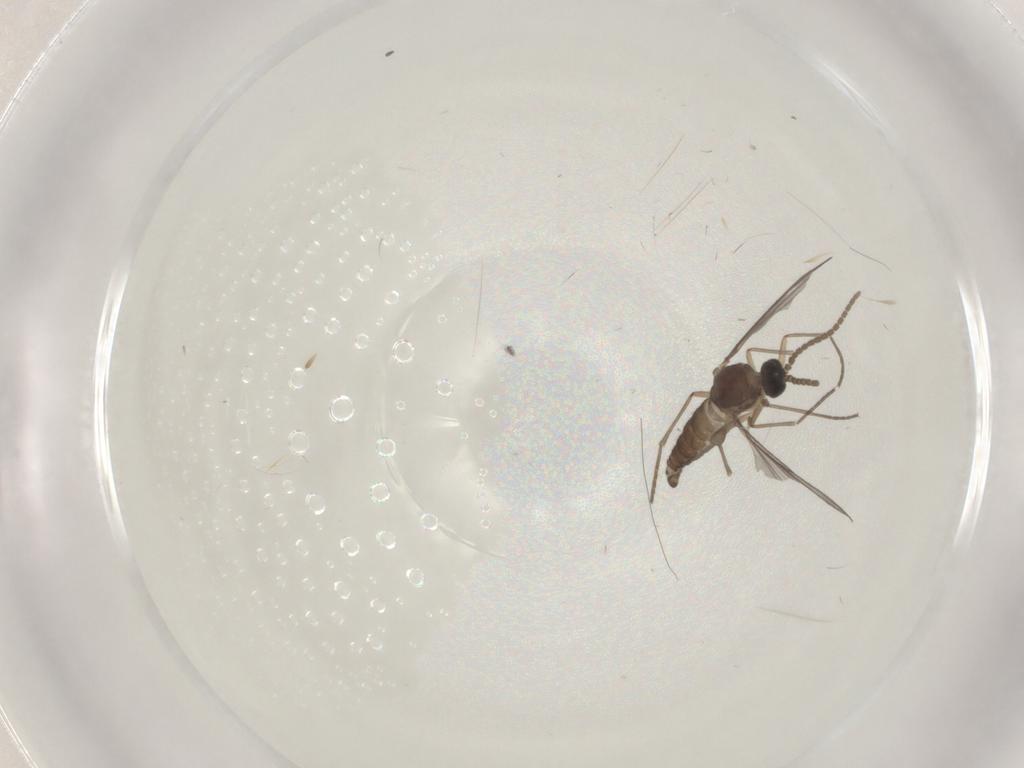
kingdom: Animalia
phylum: Arthropoda
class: Insecta
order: Diptera
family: Sciaridae
